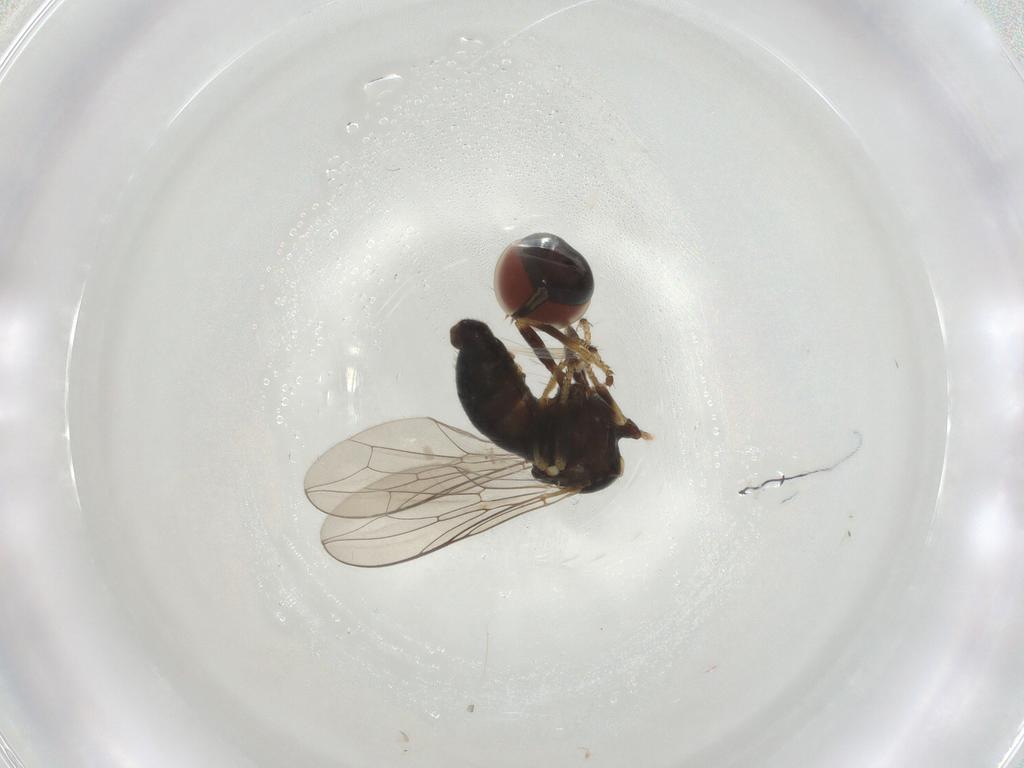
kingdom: Animalia
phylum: Arthropoda
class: Insecta
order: Diptera
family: Pipunculidae
